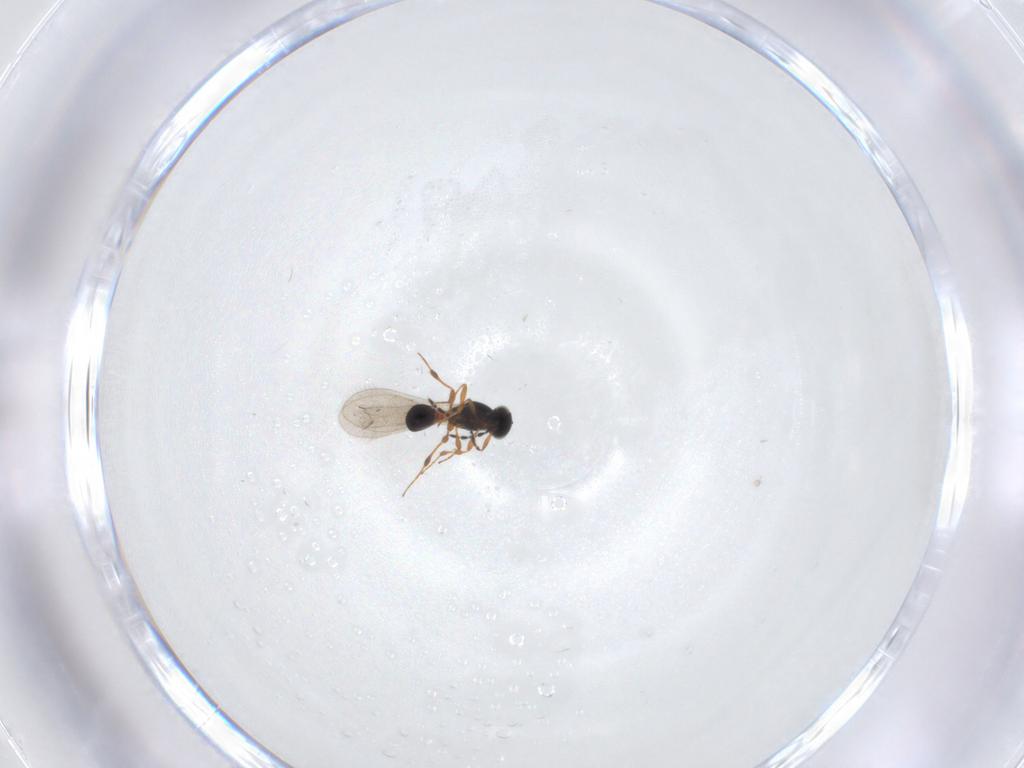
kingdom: Animalia
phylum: Arthropoda
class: Insecta
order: Hymenoptera
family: Platygastridae
